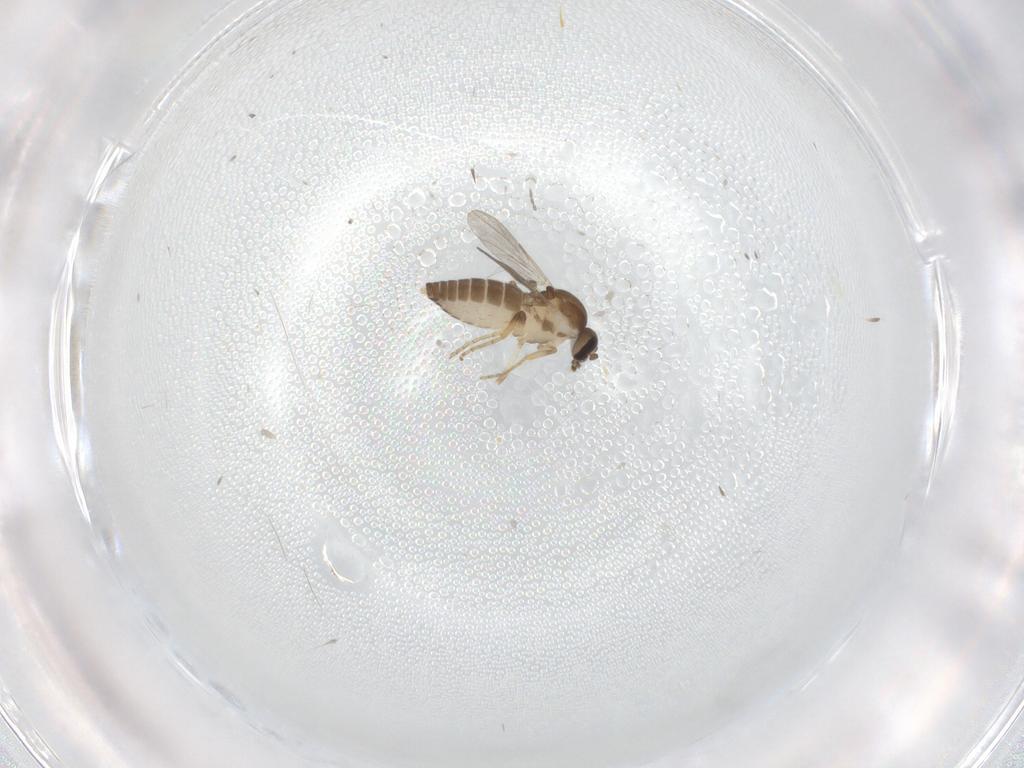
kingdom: Animalia
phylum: Arthropoda
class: Insecta
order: Diptera
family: Ceratopogonidae
